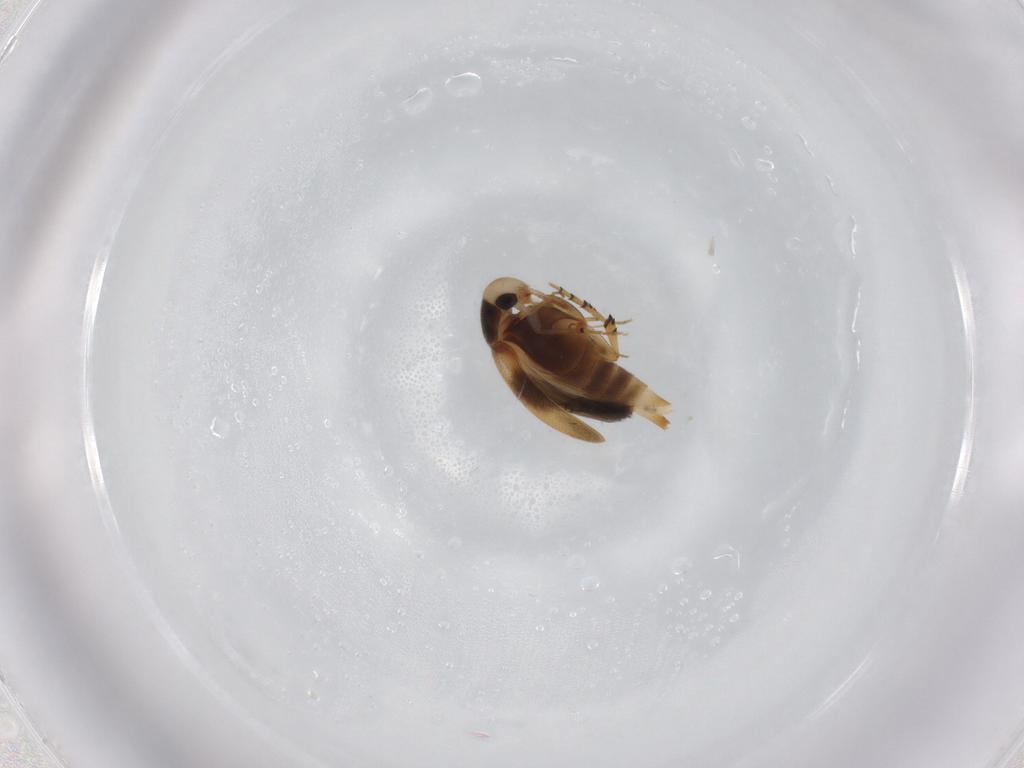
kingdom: Animalia
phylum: Arthropoda
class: Insecta
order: Coleoptera
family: Mordellidae
